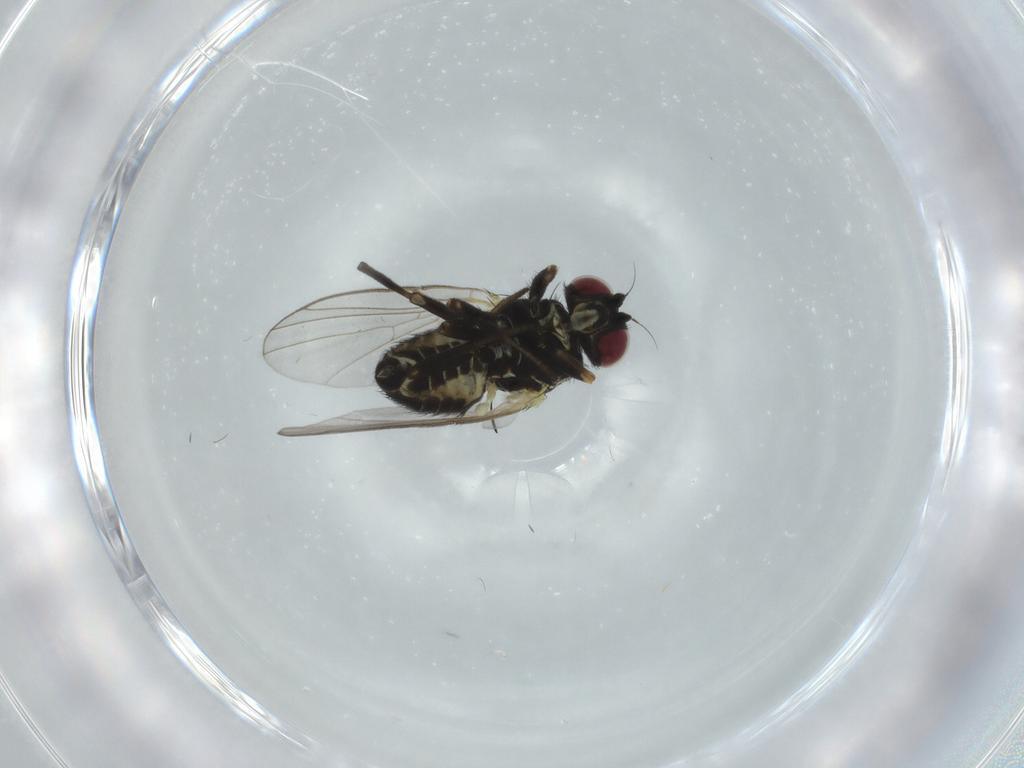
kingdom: Animalia
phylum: Arthropoda
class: Insecta
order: Diptera
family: Agromyzidae
